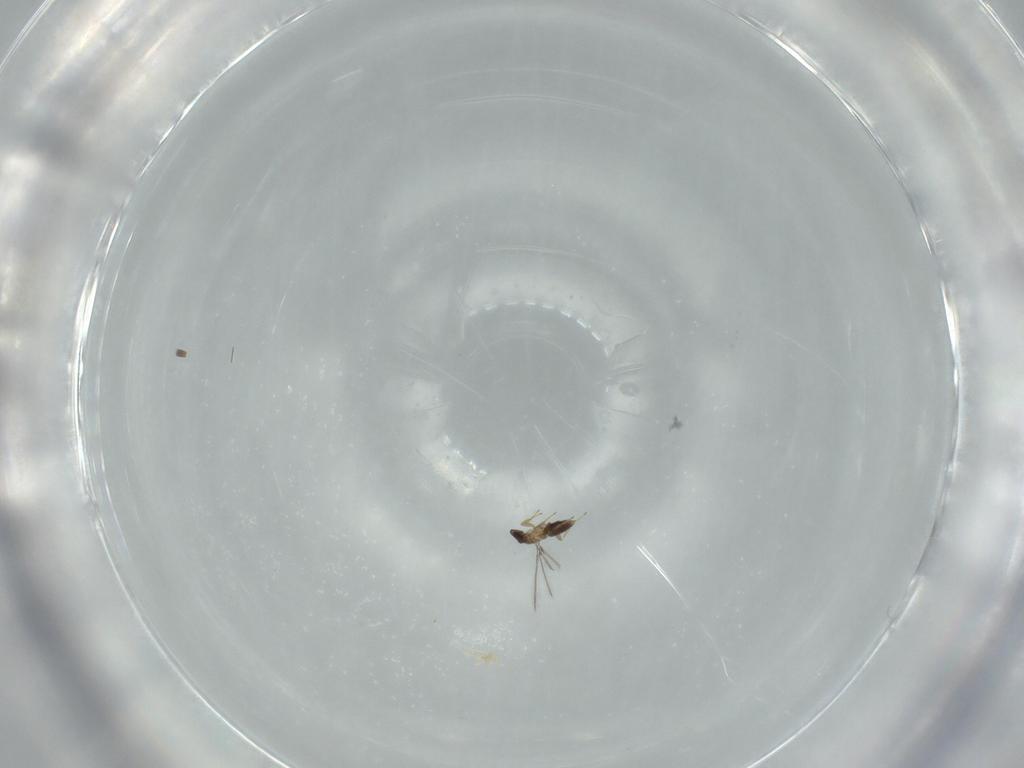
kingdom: Animalia
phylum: Arthropoda
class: Insecta
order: Hymenoptera
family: Mymaridae
